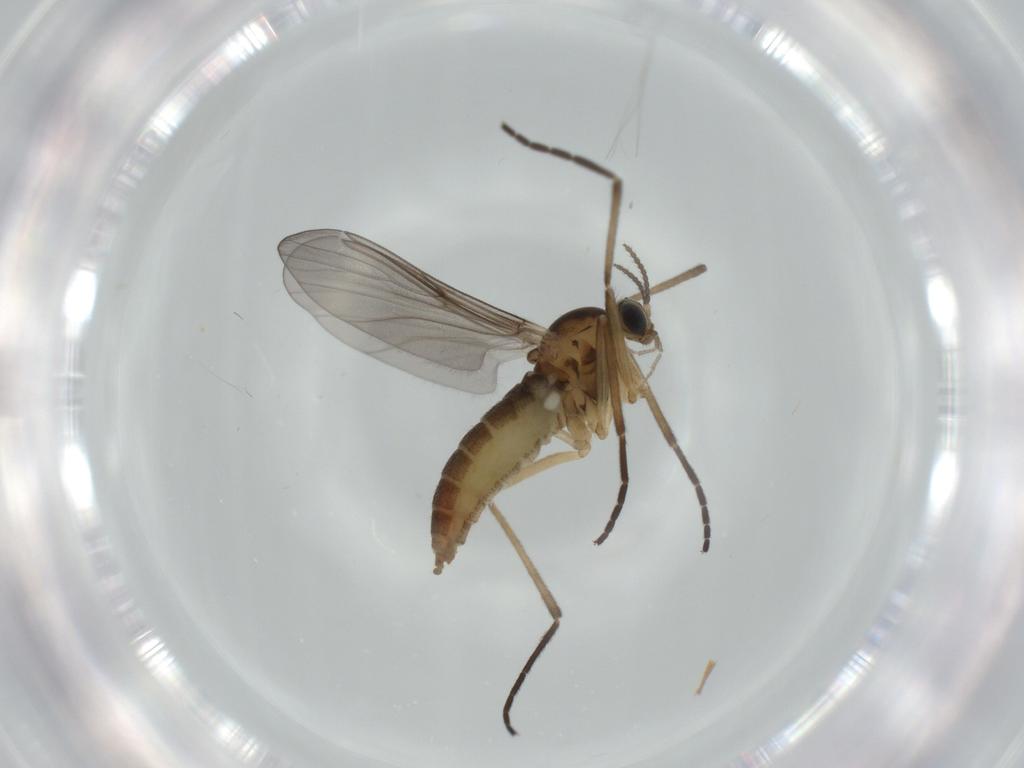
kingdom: Animalia
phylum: Arthropoda
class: Insecta
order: Diptera
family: Cecidomyiidae
